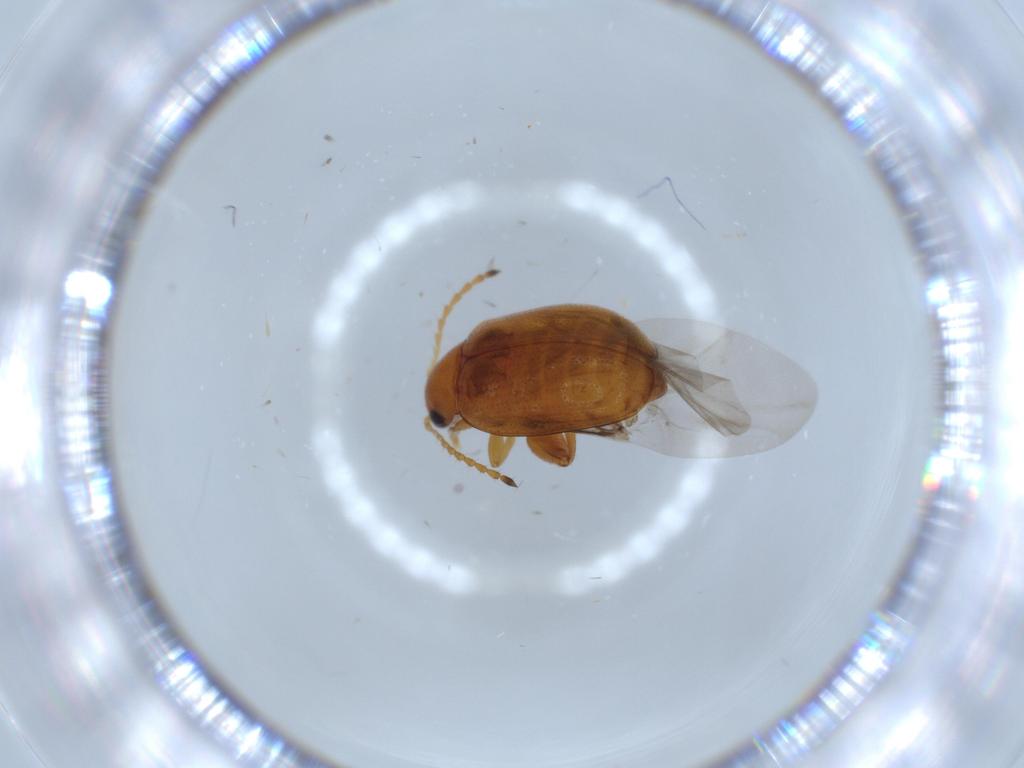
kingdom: Animalia
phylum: Arthropoda
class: Insecta
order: Coleoptera
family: Chrysomelidae
